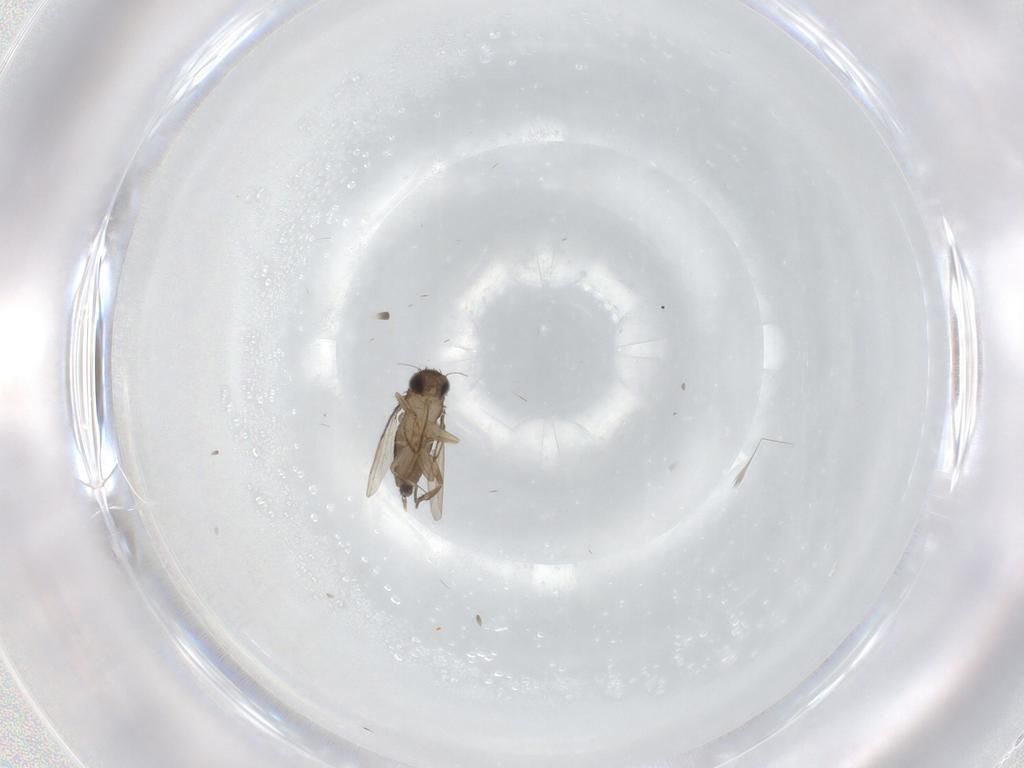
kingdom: Animalia
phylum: Arthropoda
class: Insecta
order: Diptera
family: Phoridae
